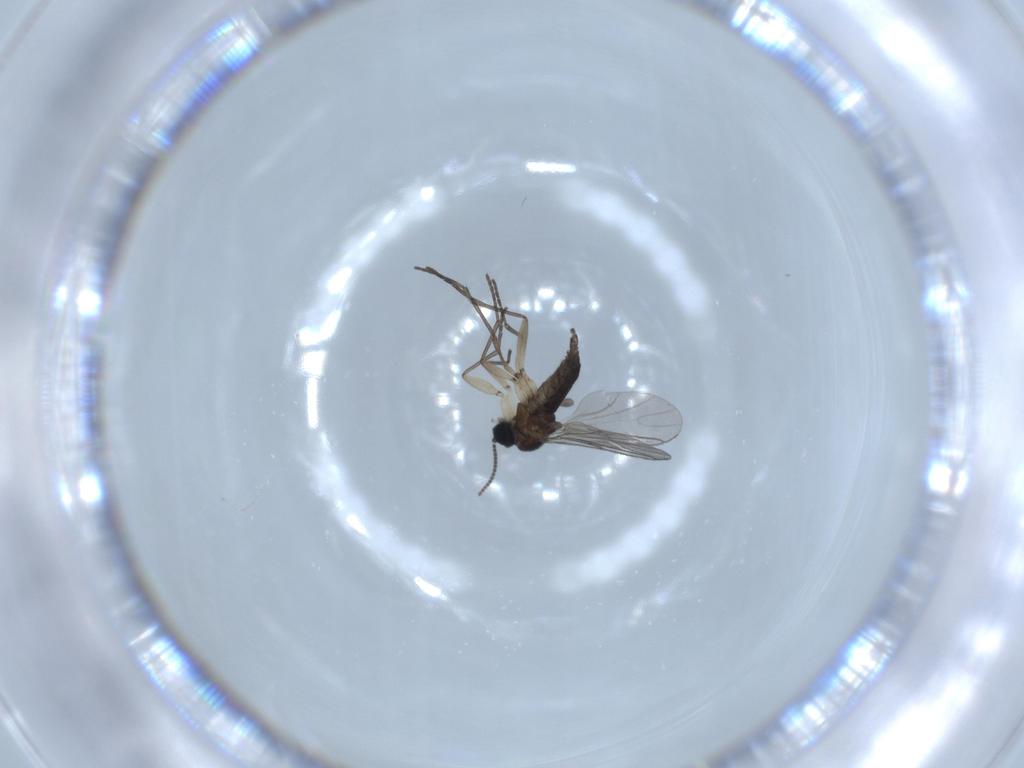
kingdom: Animalia
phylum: Arthropoda
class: Insecta
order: Diptera
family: Sciaridae
